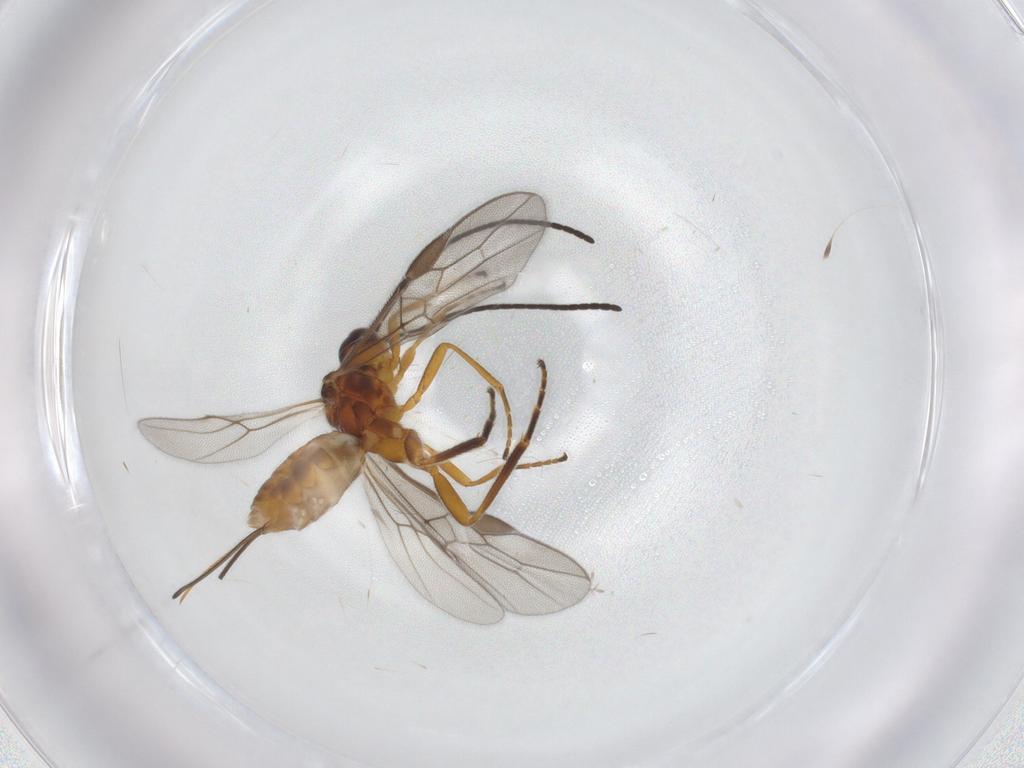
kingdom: Animalia
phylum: Arthropoda
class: Insecta
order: Hymenoptera
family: Braconidae
